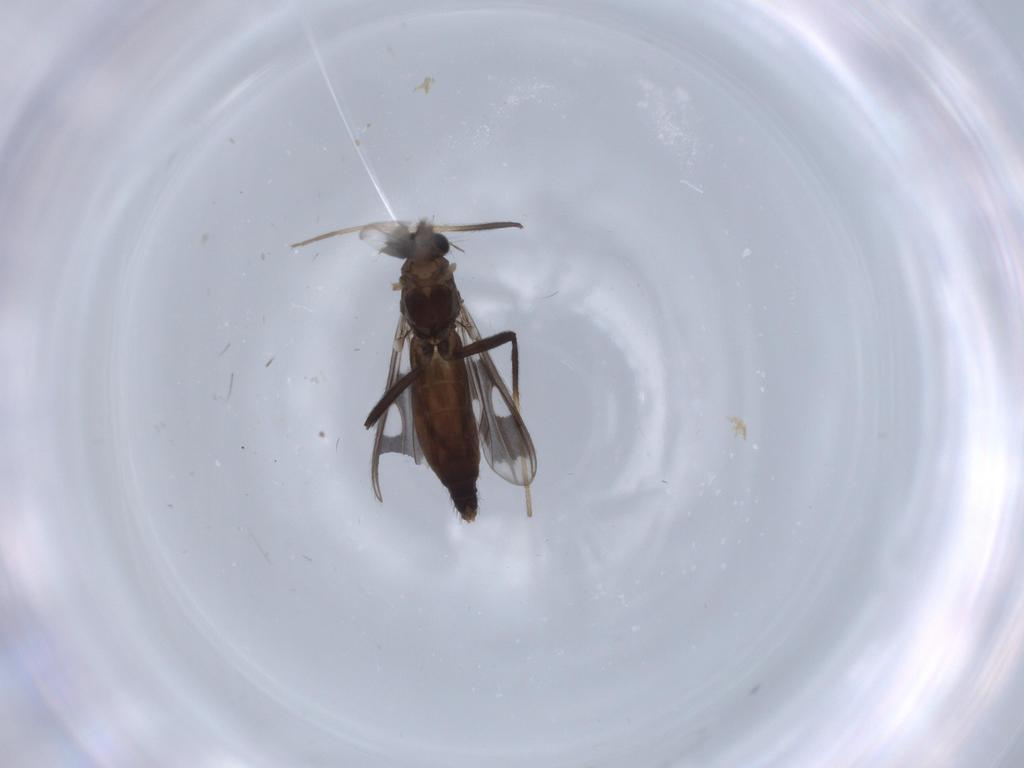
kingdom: Animalia
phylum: Arthropoda
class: Insecta
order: Diptera
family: Chironomidae
